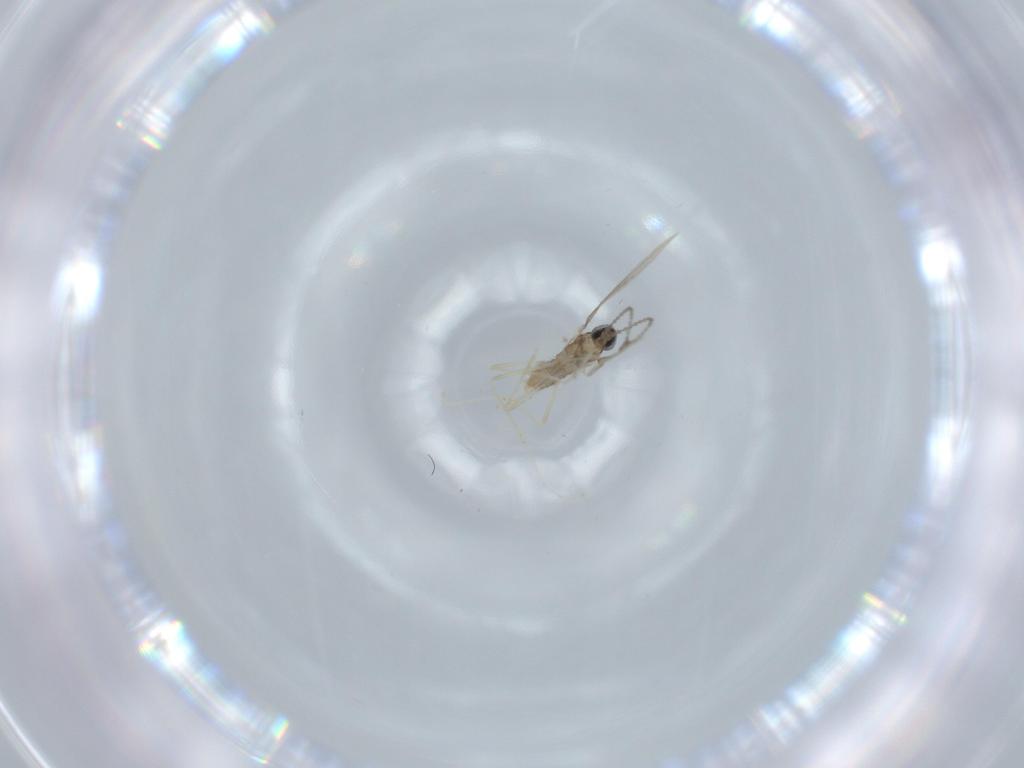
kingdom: Animalia
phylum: Arthropoda
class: Insecta
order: Diptera
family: Cecidomyiidae
